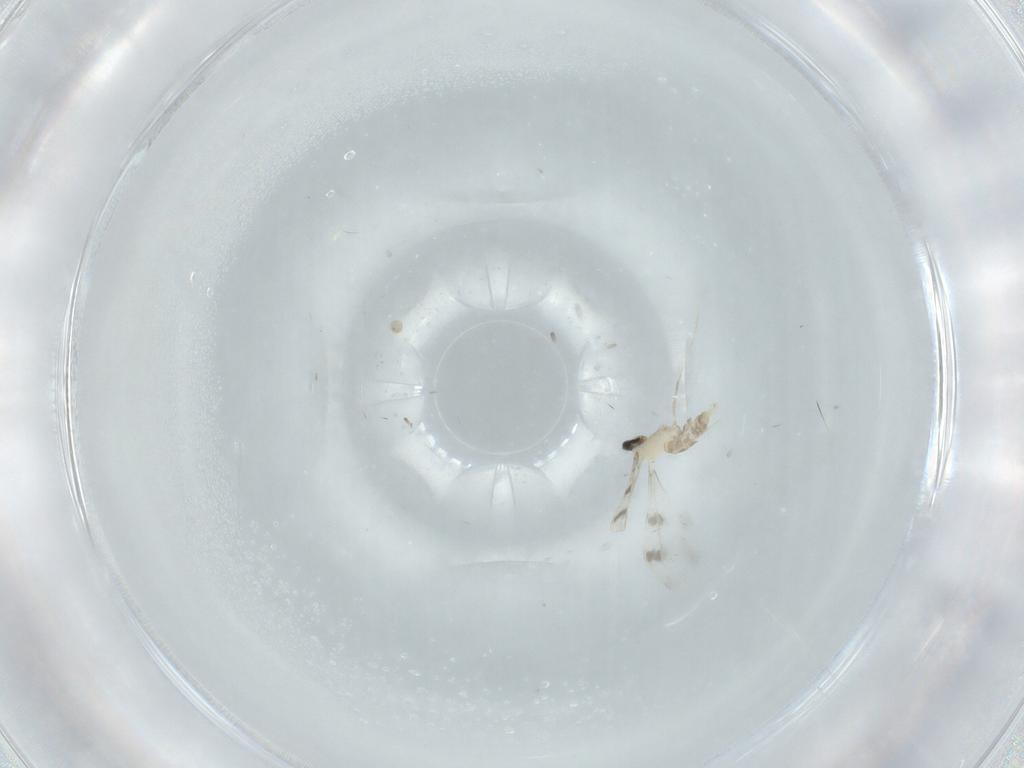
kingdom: Animalia
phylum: Arthropoda
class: Insecta
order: Diptera
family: Cecidomyiidae
